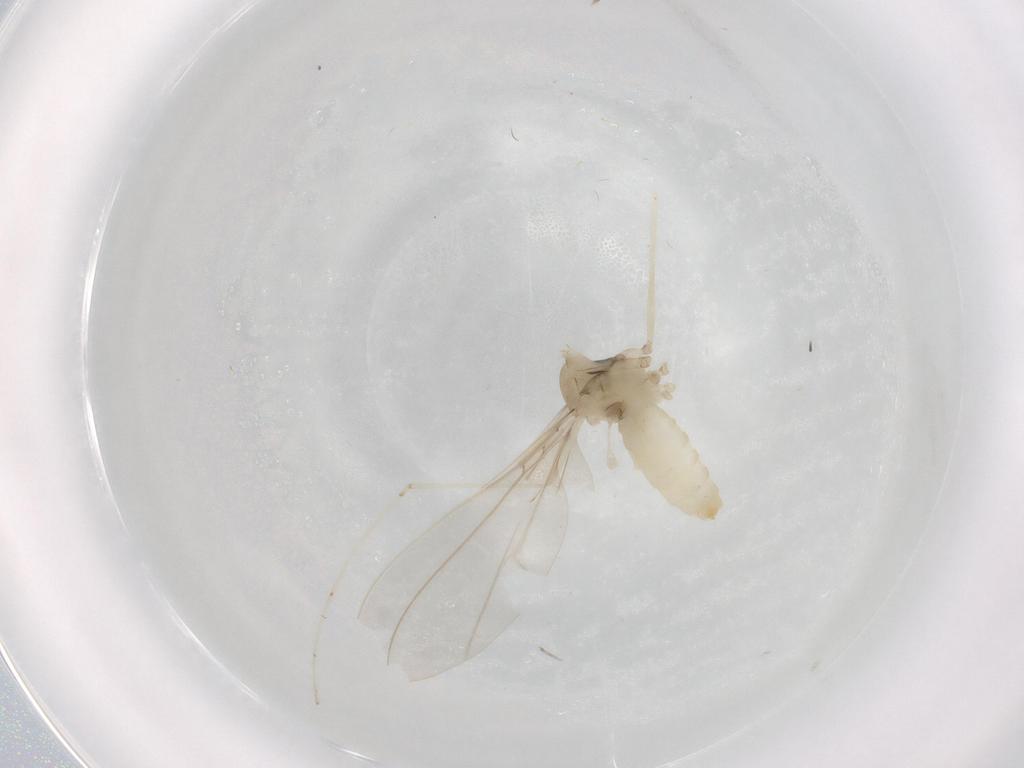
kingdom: Animalia
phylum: Arthropoda
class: Insecta
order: Diptera
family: Cecidomyiidae
